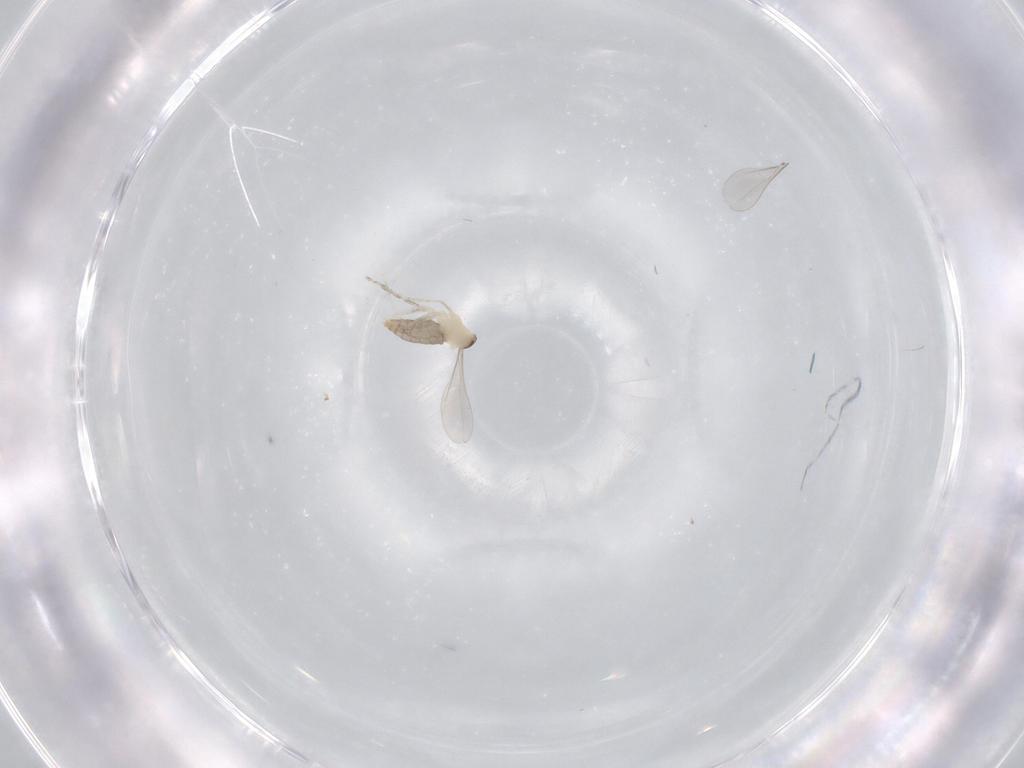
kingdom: Animalia
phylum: Arthropoda
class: Insecta
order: Diptera
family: Cecidomyiidae
